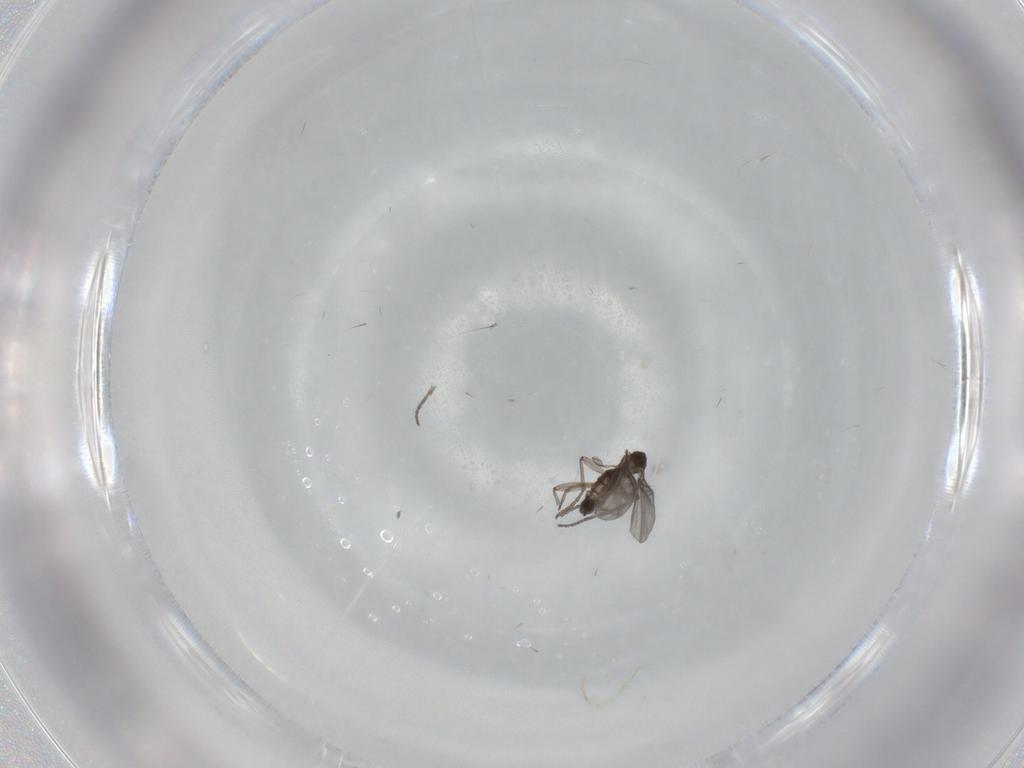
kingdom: Animalia
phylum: Arthropoda
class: Insecta
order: Diptera
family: Sciaridae
